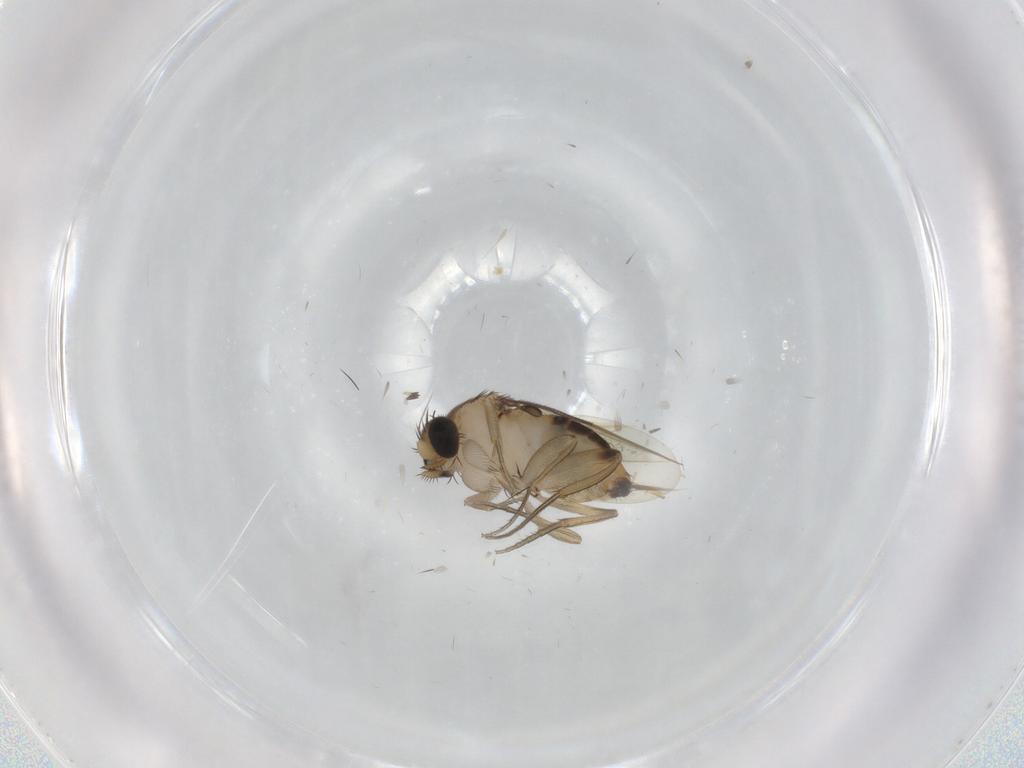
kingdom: Animalia
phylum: Arthropoda
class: Insecta
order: Diptera
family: Phoridae
